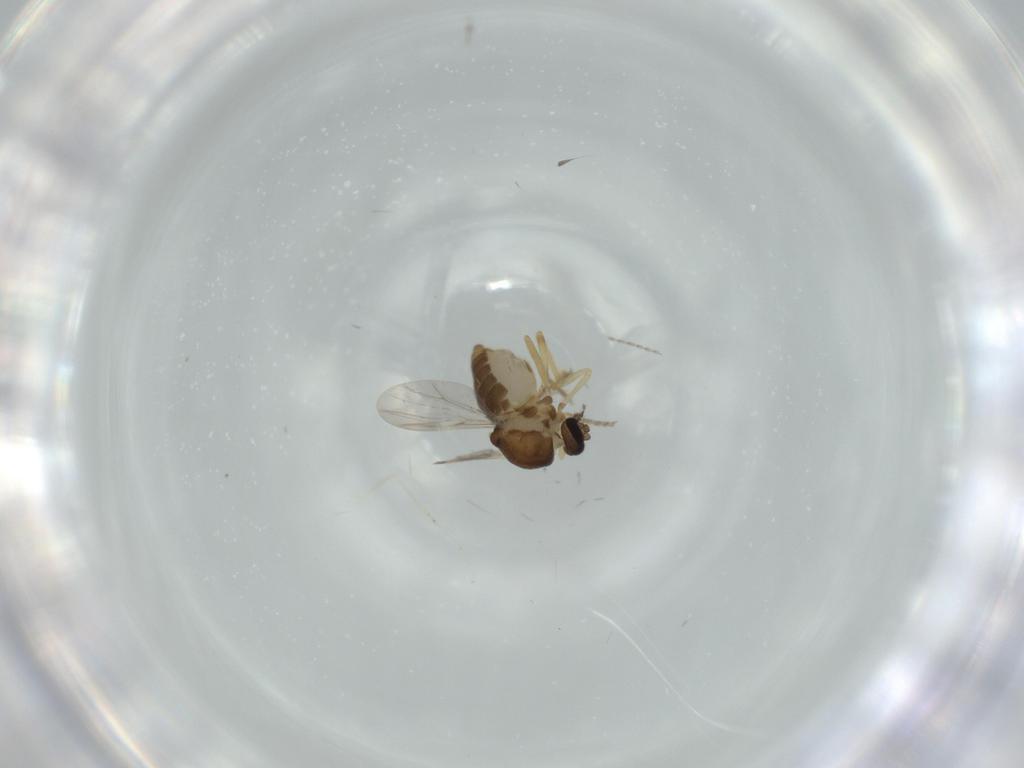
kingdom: Animalia
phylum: Arthropoda
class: Insecta
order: Diptera
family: Ceratopogonidae
